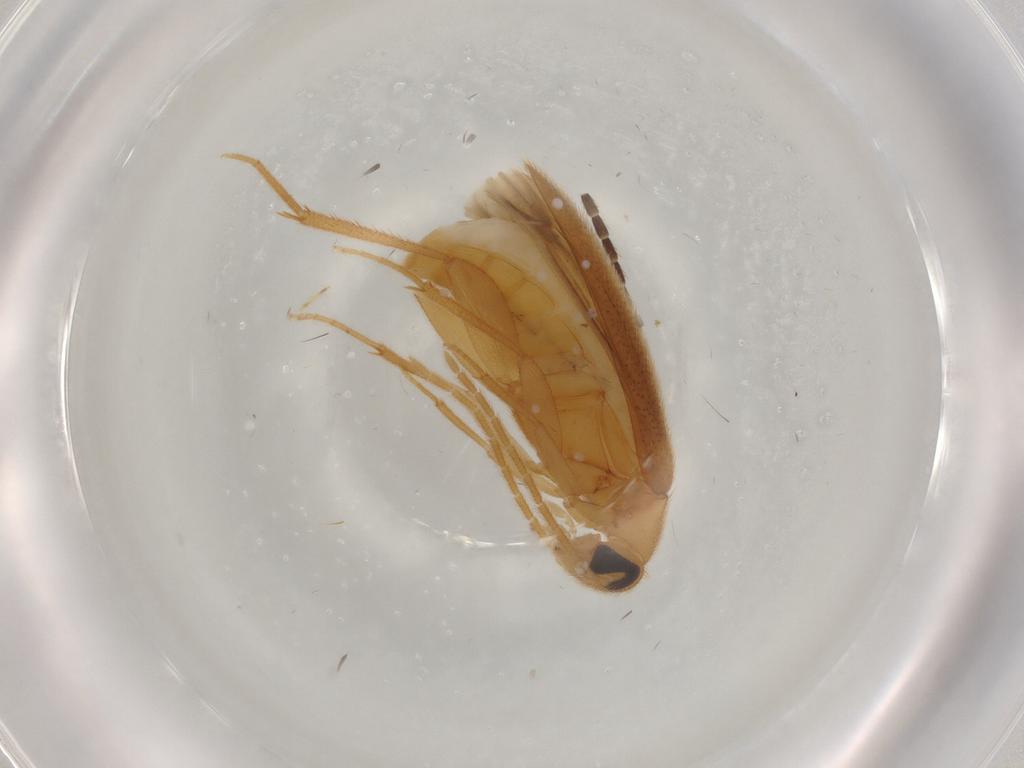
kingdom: Animalia
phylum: Arthropoda
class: Insecta
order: Coleoptera
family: Scraptiidae
